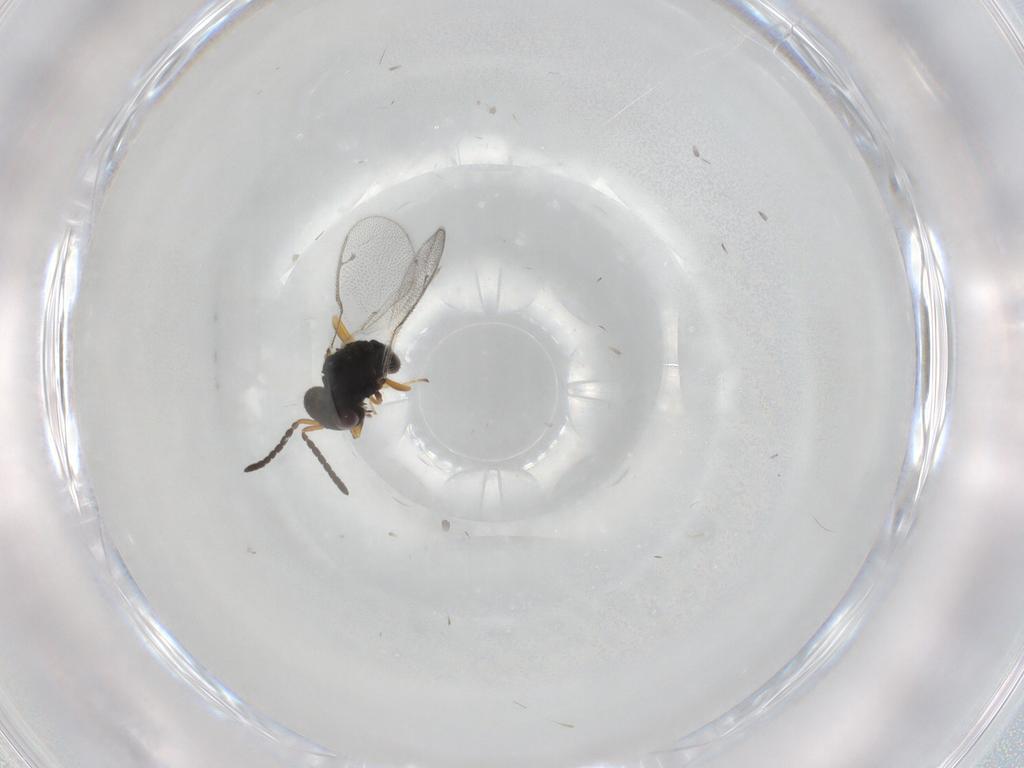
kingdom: Animalia
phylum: Arthropoda
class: Insecta
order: Hymenoptera
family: Pteromalidae
